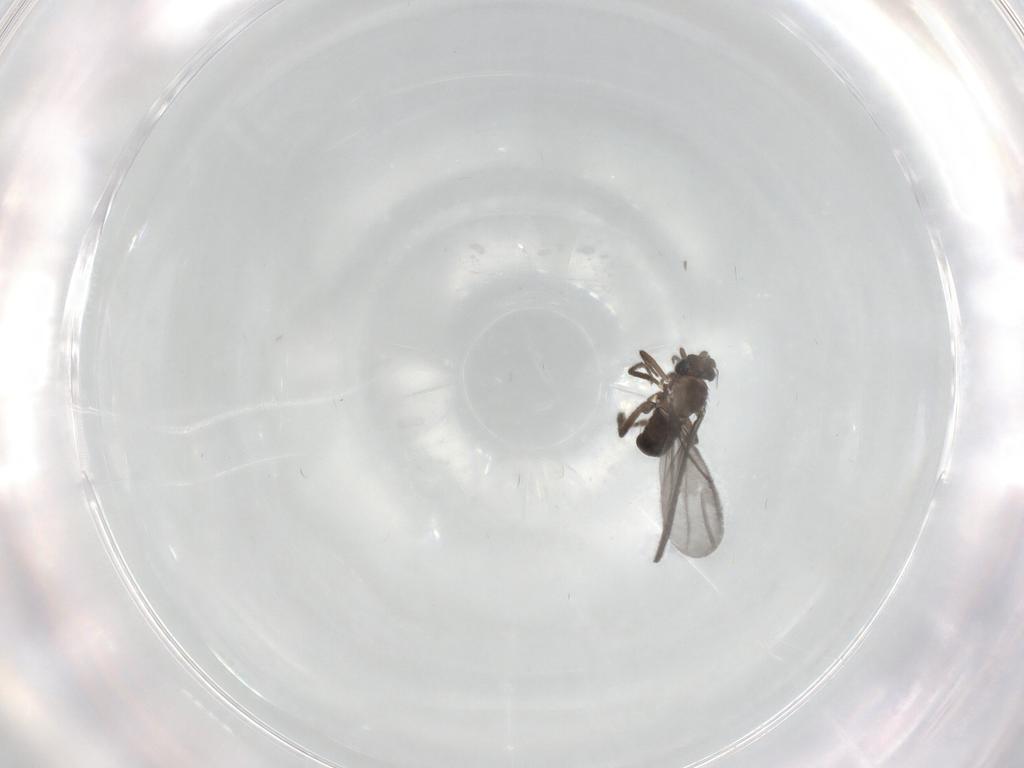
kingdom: Animalia
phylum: Arthropoda
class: Insecta
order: Diptera
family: Phoridae
